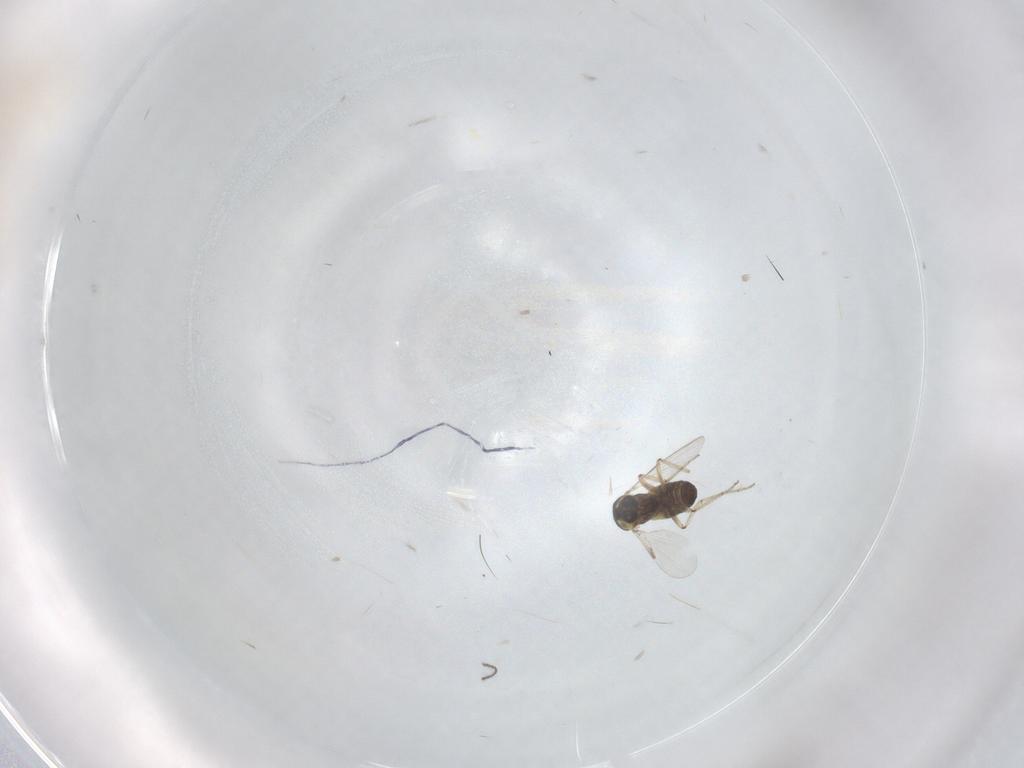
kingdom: Animalia
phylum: Arthropoda
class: Insecta
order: Diptera
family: Ceratopogonidae
